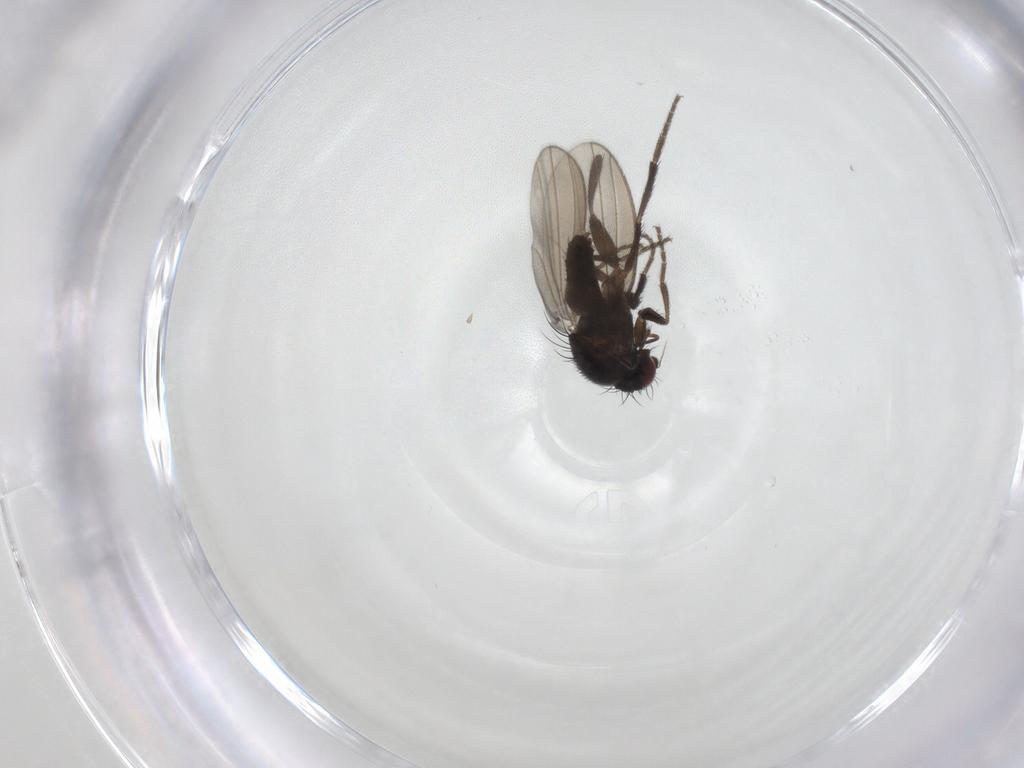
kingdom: Animalia
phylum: Arthropoda
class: Insecta
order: Diptera
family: Milichiidae
